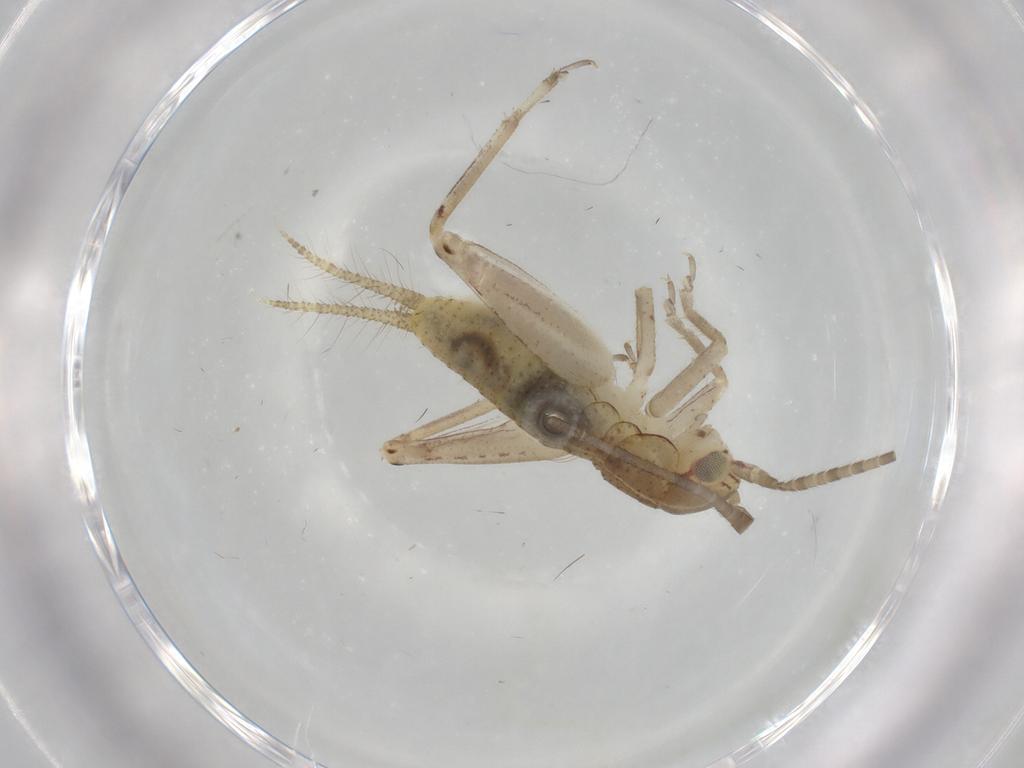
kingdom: Animalia
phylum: Arthropoda
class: Insecta
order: Orthoptera
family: Gryllidae
